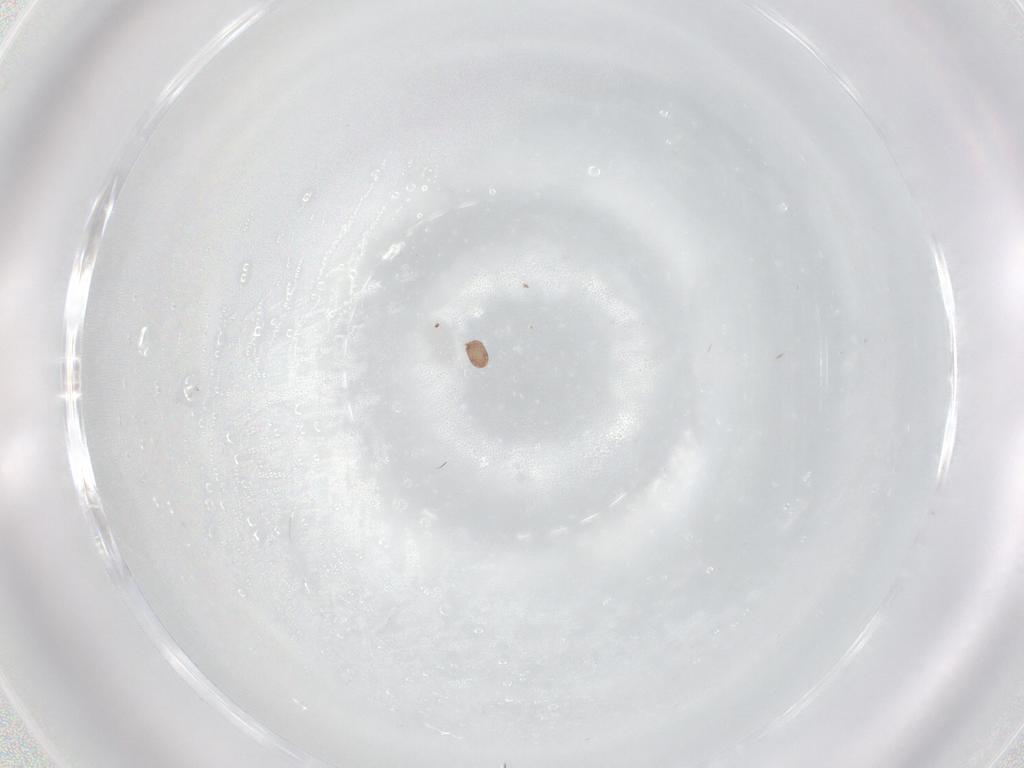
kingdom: Animalia
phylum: Arthropoda
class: Arachnida
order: Sarcoptiformes
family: Acaridae
